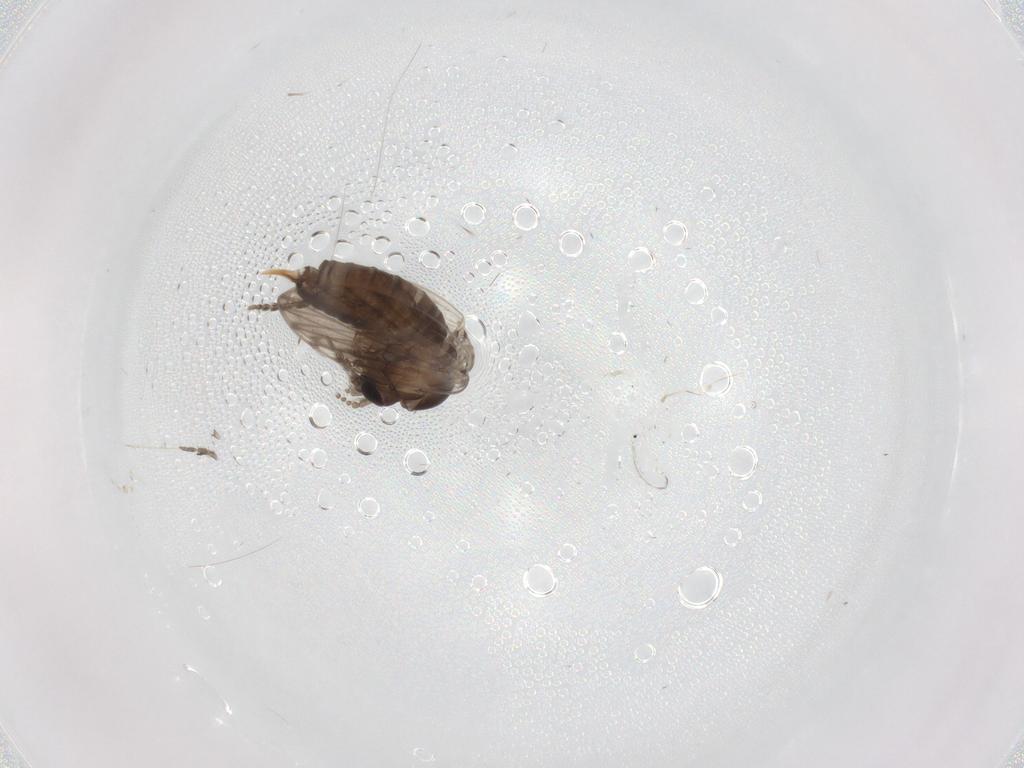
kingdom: Animalia
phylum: Arthropoda
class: Insecta
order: Diptera
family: Psychodidae
